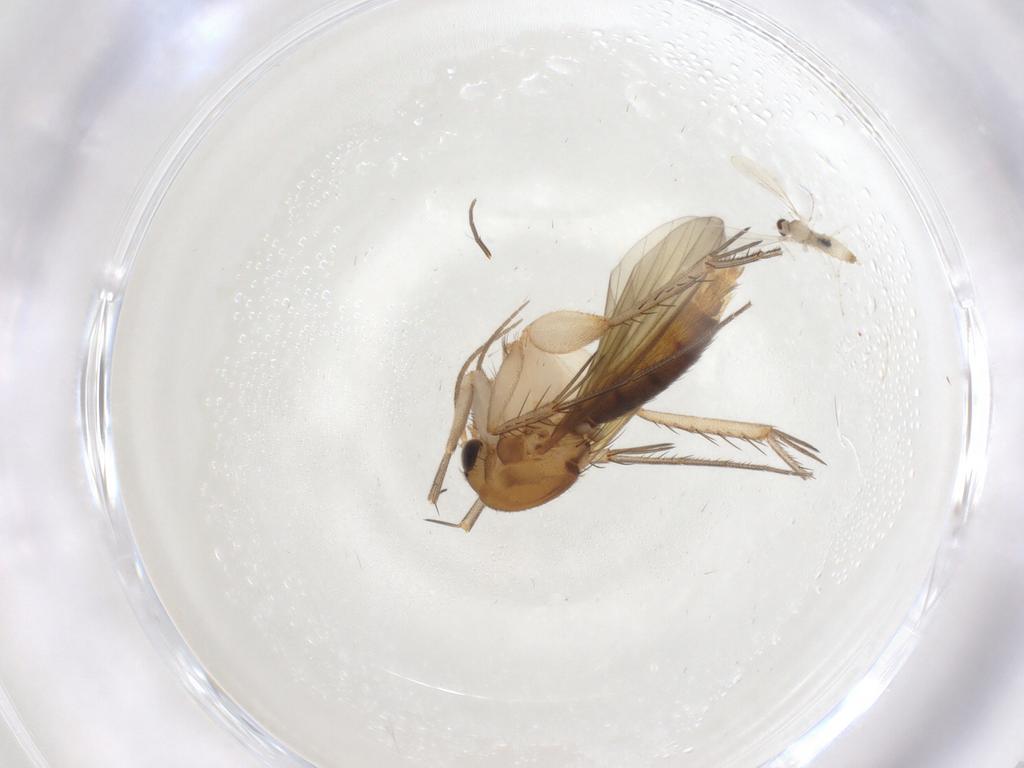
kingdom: Animalia
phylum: Arthropoda
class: Insecta
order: Diptera
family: Mycetophilidae
